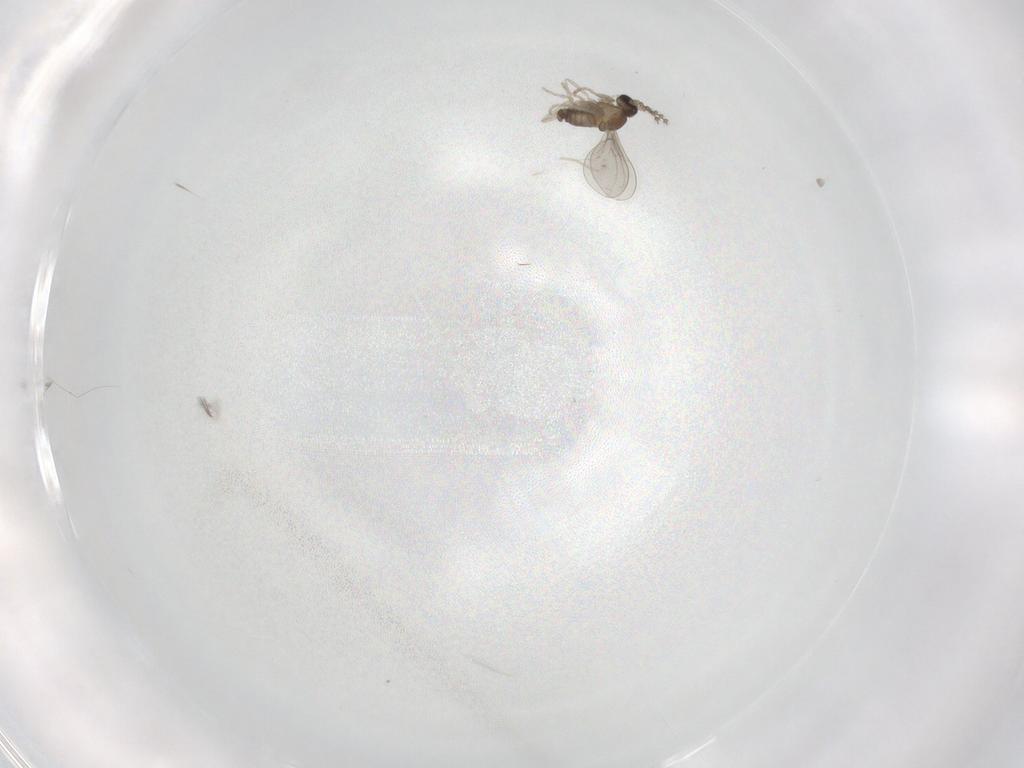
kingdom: Animalia
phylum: Arthropoda
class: Insecta
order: Diptera
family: Cecidomyiidae
